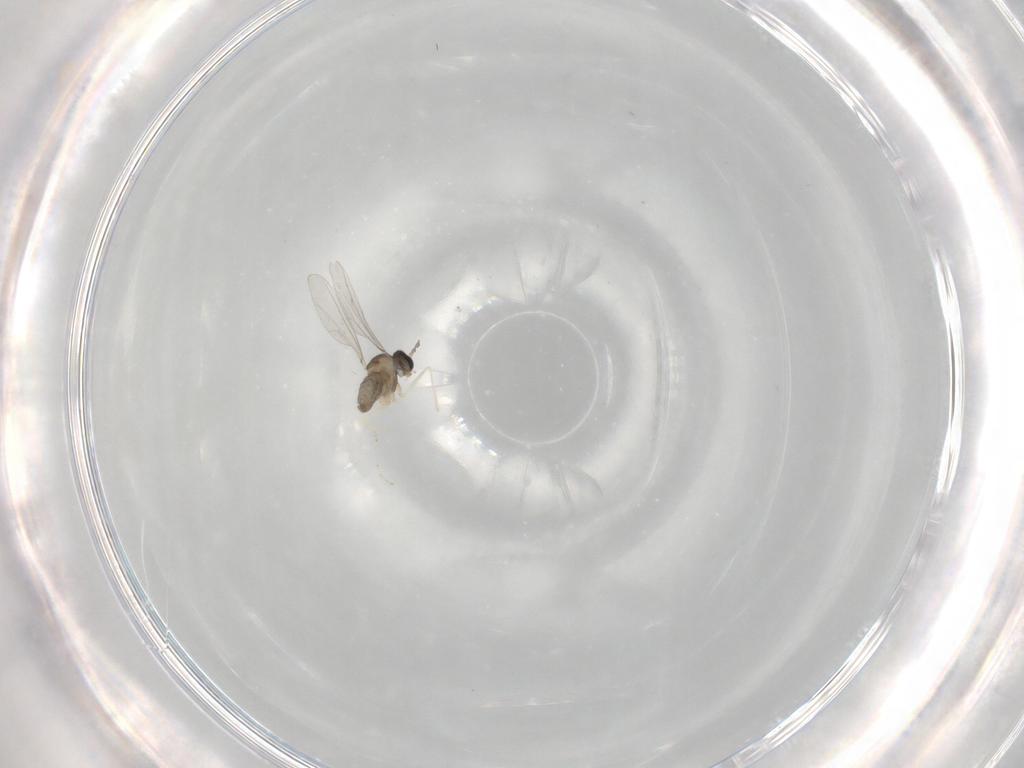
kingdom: Animalia
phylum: Arthropoda
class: Insecta
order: Diptera
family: Cecidomyiidae
